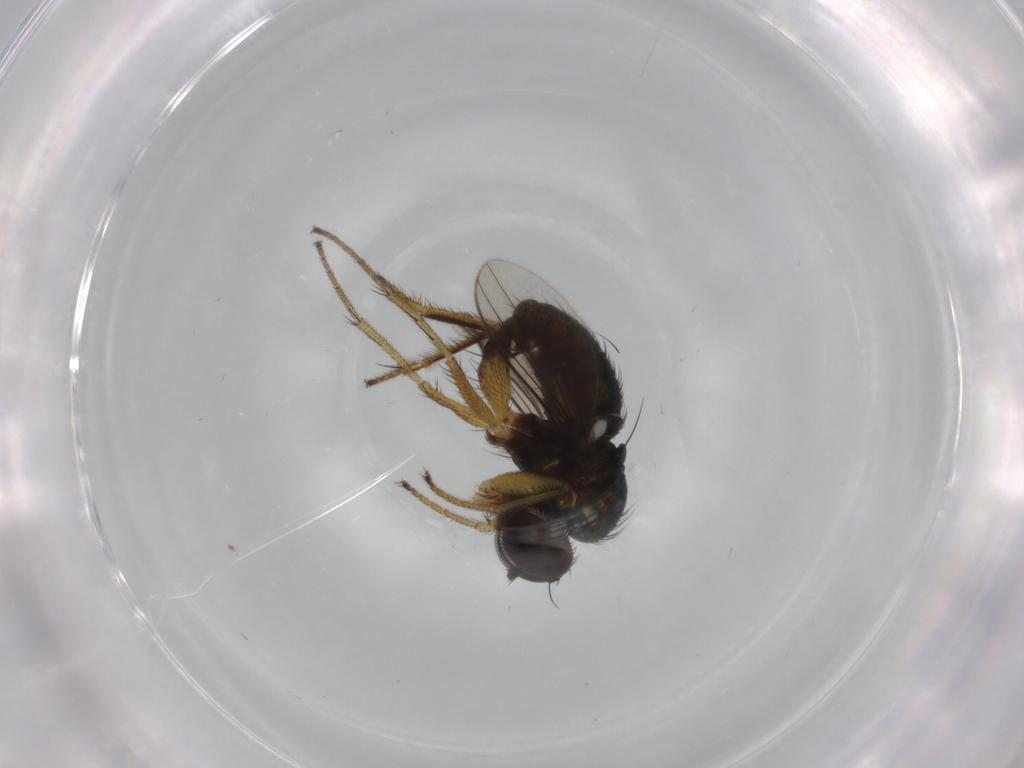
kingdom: Animalia
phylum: Arthropoda
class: Insecta
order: Diptera
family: Dolichopodidae
